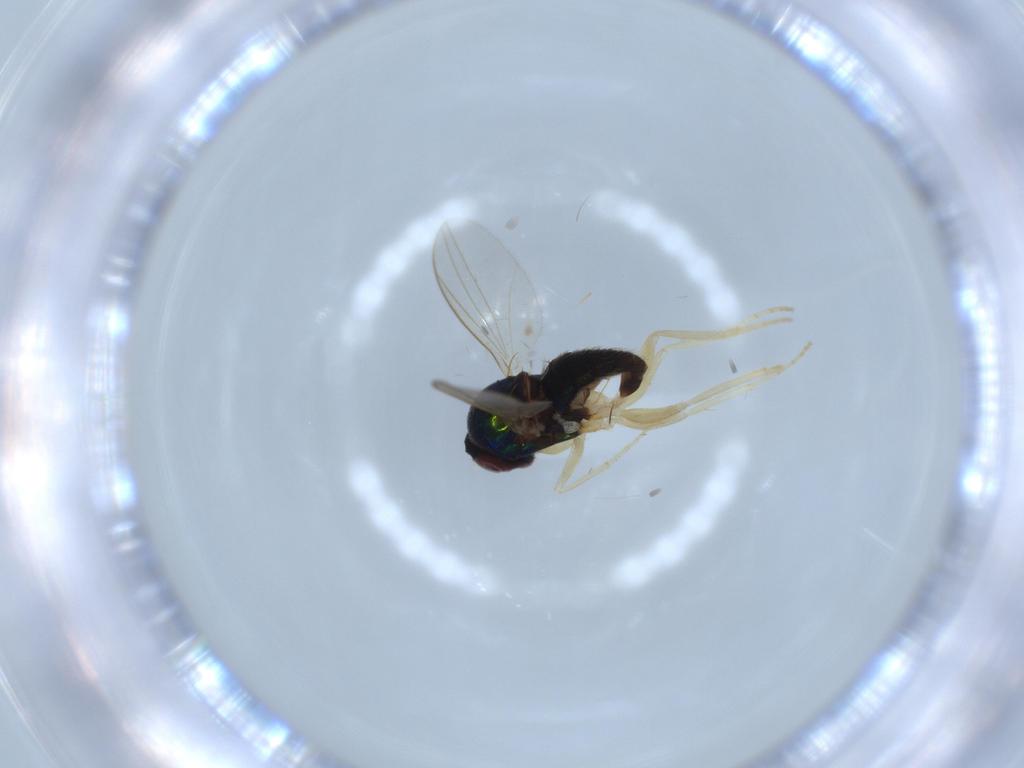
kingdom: Animalia
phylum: Arthropoda
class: Insecta
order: Diptera
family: Dolichopodidae
